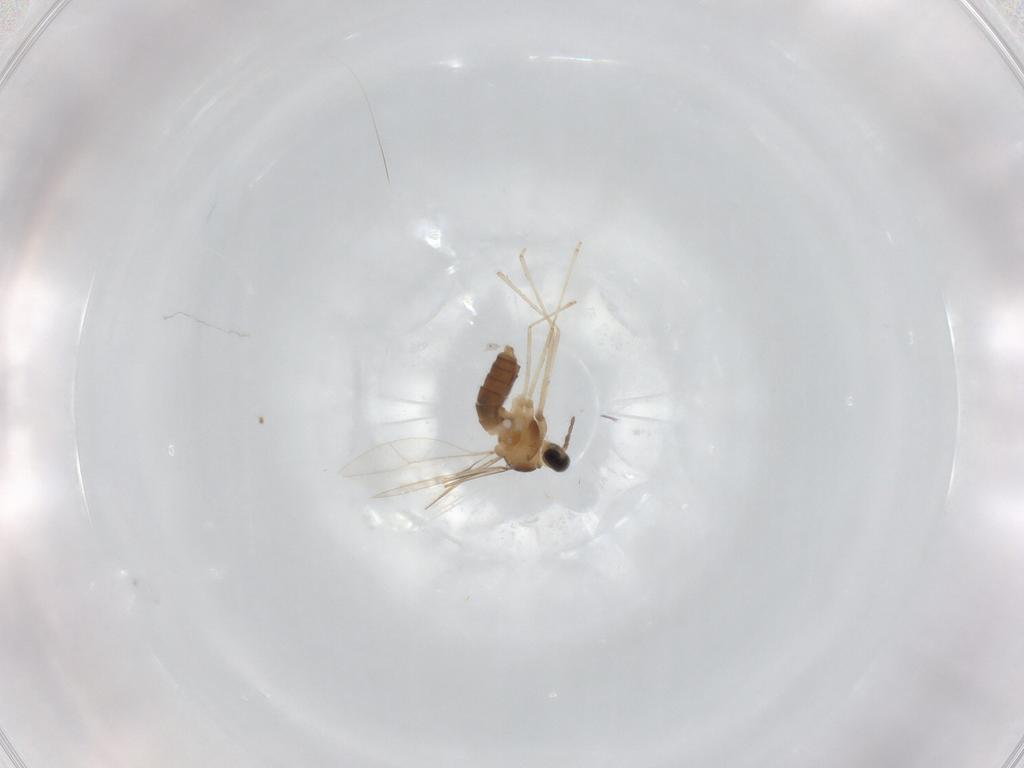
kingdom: Animalia
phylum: Arthropoda
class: Insecta
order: Diptera
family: Cecidomyiidae
